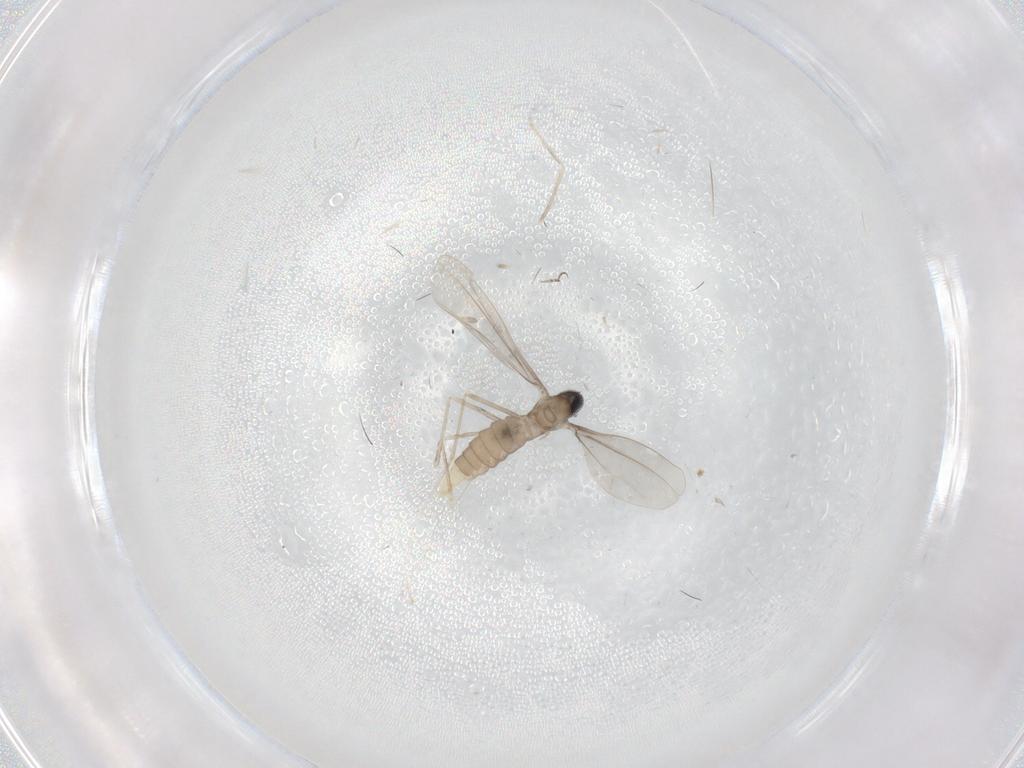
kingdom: Animalia
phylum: Arthropoda
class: Insecta
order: Diptera
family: Cecidomyiidae
